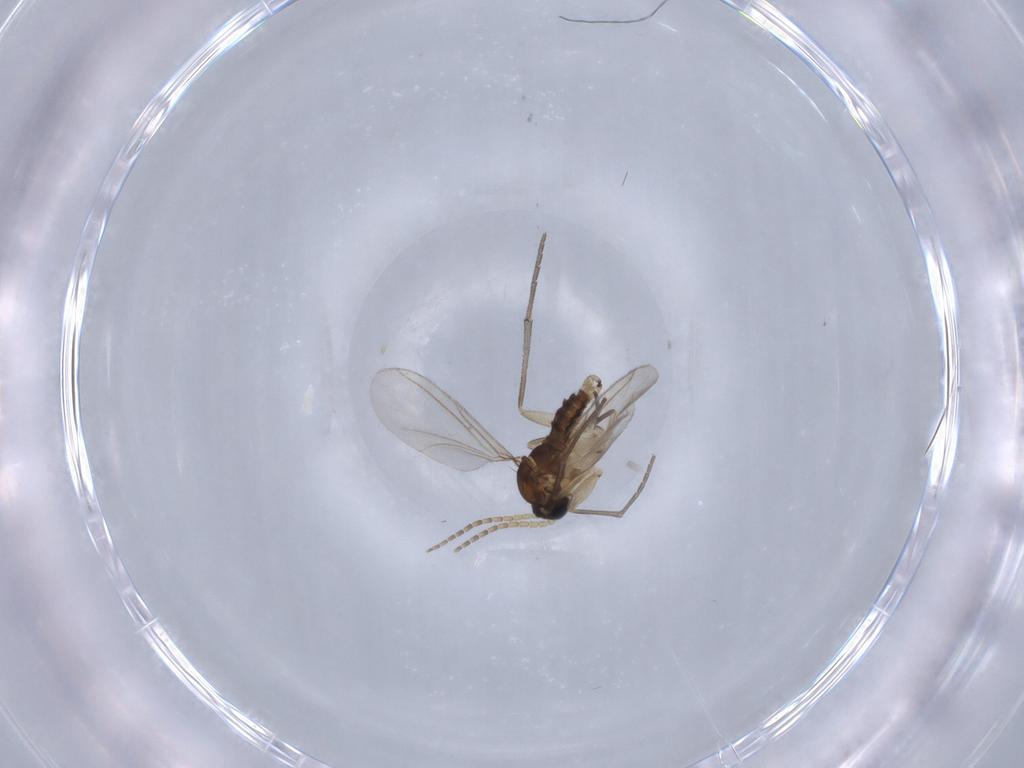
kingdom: Animalia
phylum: Arthropoda
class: Insecta
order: Diptera
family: Sciaridae
